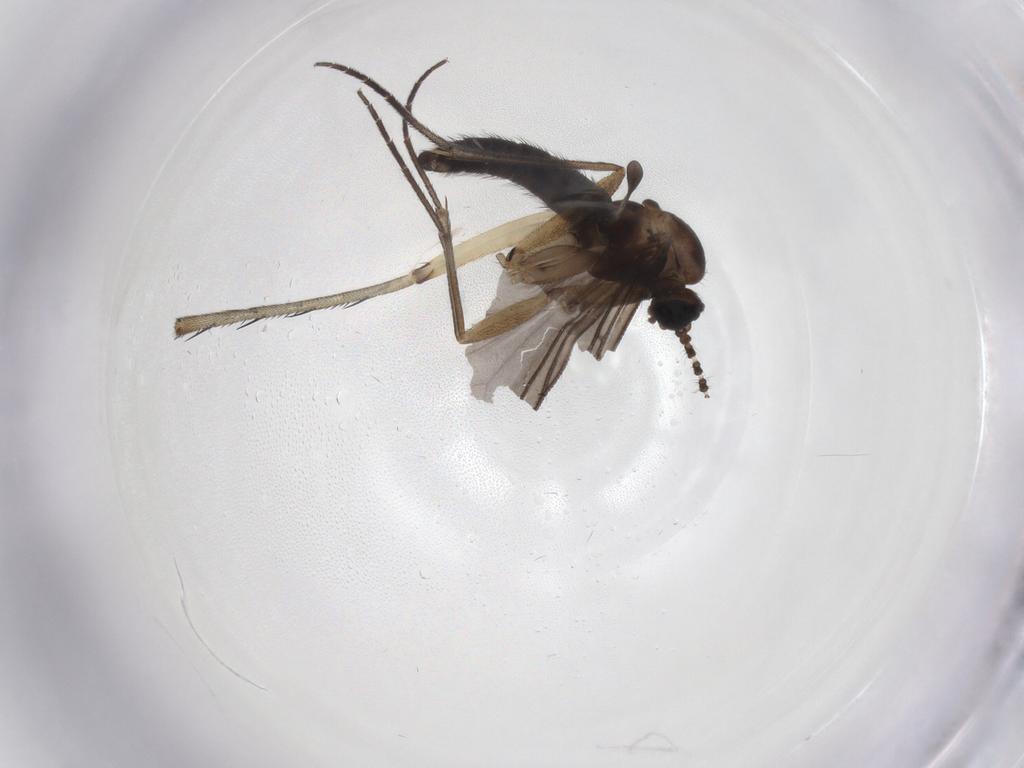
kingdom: Animalia
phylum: Arthropoda
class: Insecta
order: Diptera
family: Sciaridae
